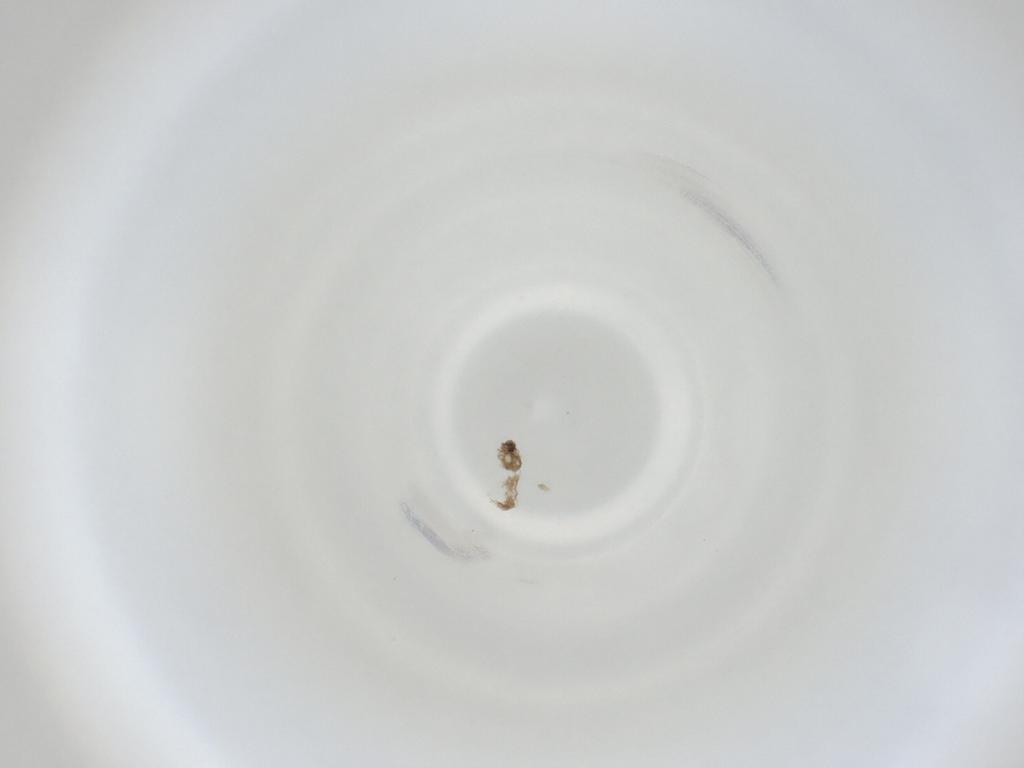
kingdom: Animalia
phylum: Arthropoda
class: Insecta
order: Diptera
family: Cecidomyiidae
